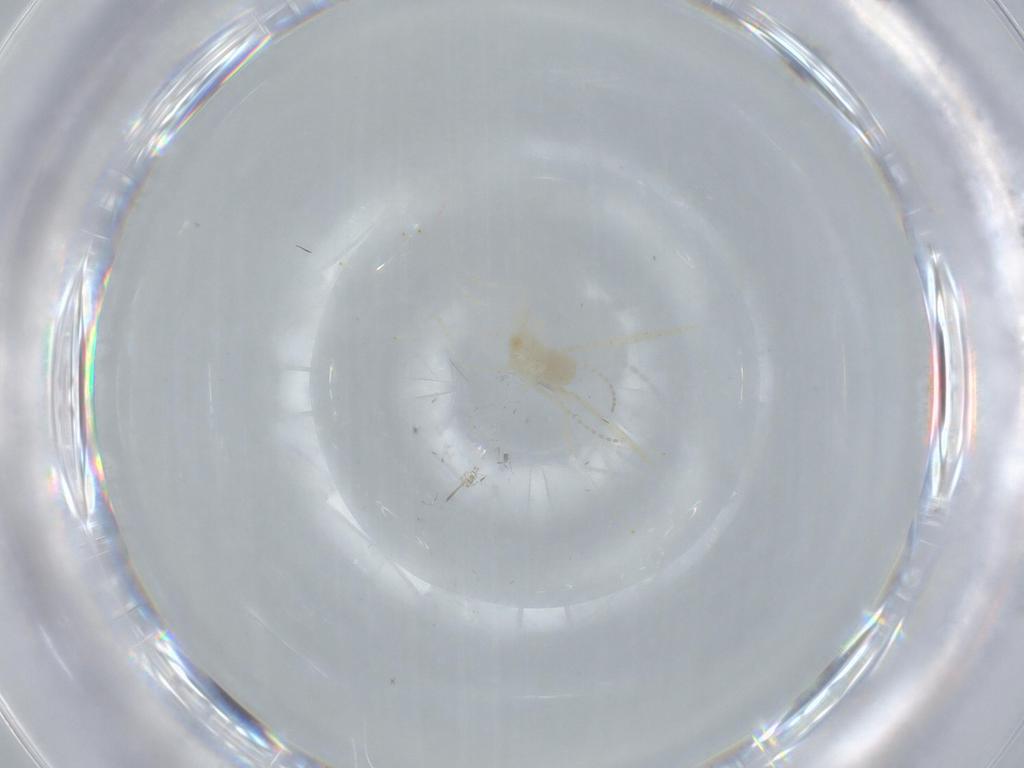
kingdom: Animalia
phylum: Arthropoda
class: Insecta
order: Diptera
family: Cecidomyiidae
